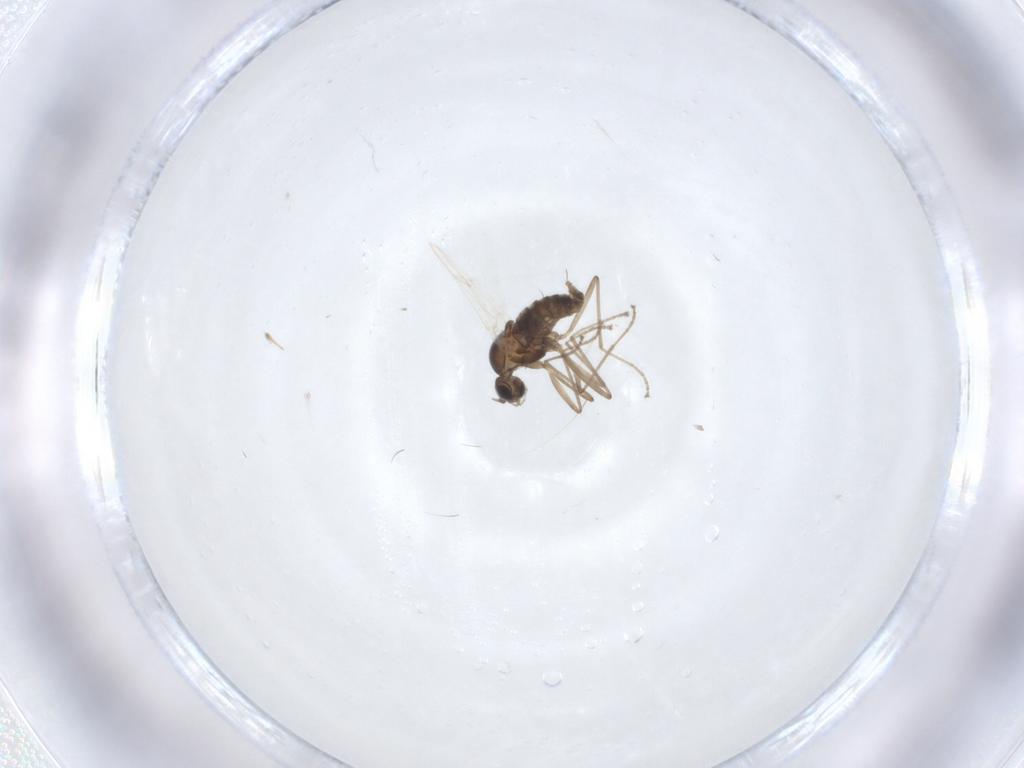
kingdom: Animalia
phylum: Arthropoda
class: Insecta
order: Diptera
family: Cecidomyiidae
